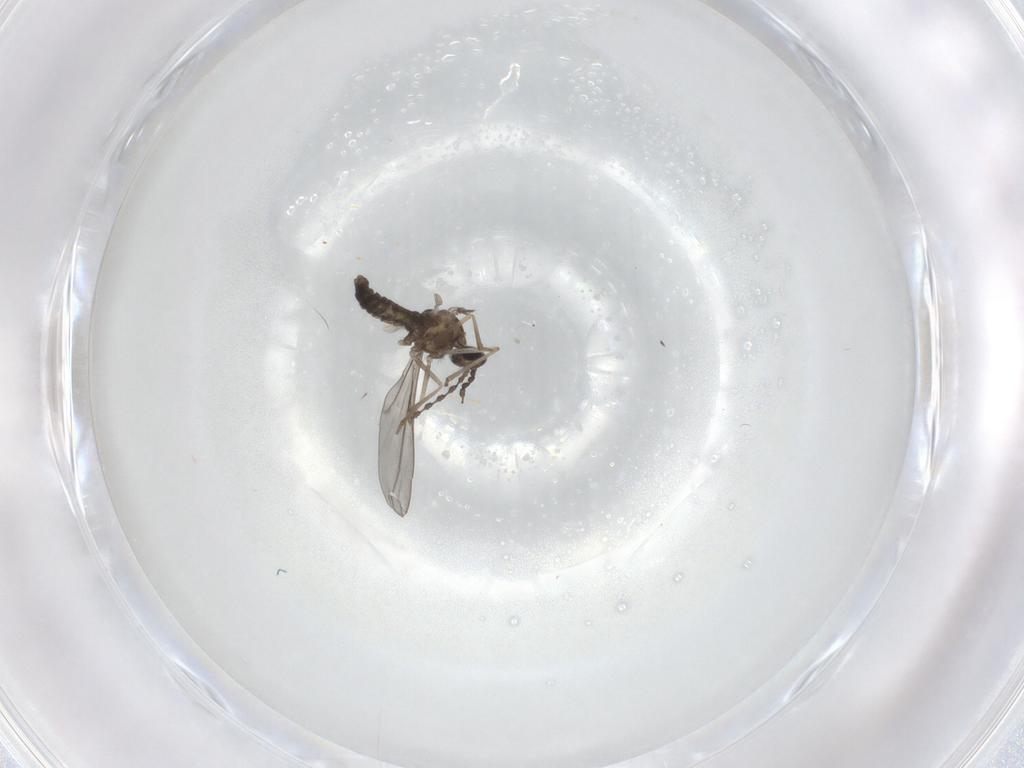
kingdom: Animalia
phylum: Arthropoda
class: Insecta
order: Diptera
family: Phoridae
